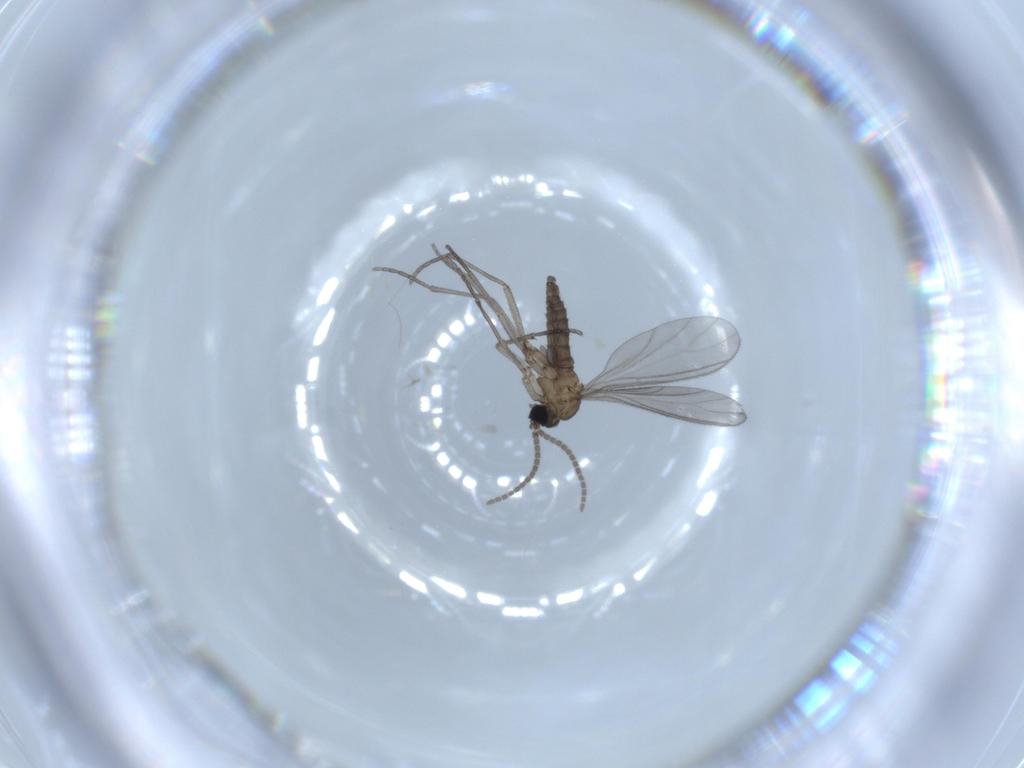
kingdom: Animalia
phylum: Arthropoda
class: Insecta
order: Diptera
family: Sciaridae
